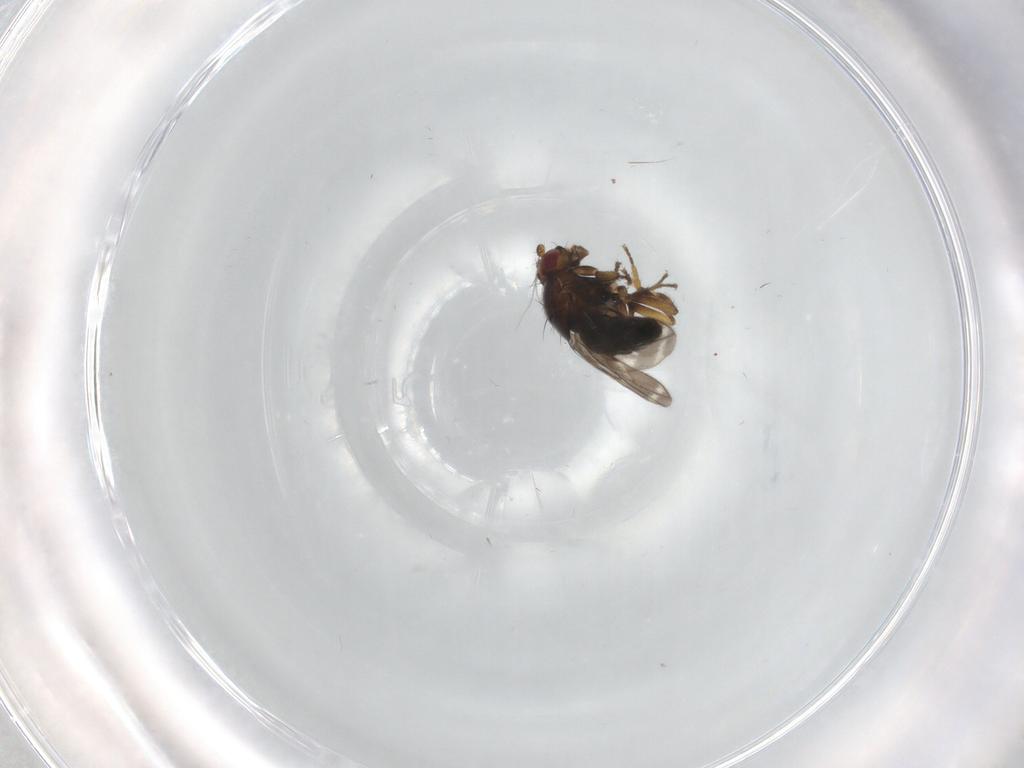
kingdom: Animalia
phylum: Arthropoda
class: Insecta
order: Diptera
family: Sphaeroceridae
